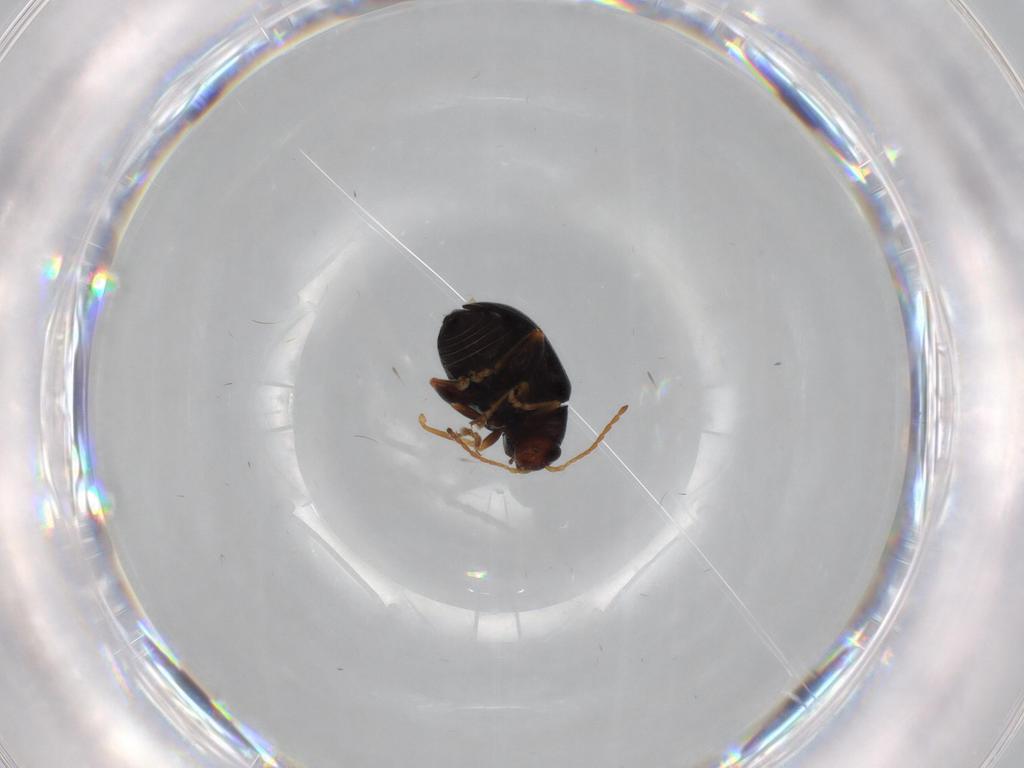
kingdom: Animalia
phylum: Arthropoda
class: Insecta
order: Coleoptera
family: Chrysomelidae
